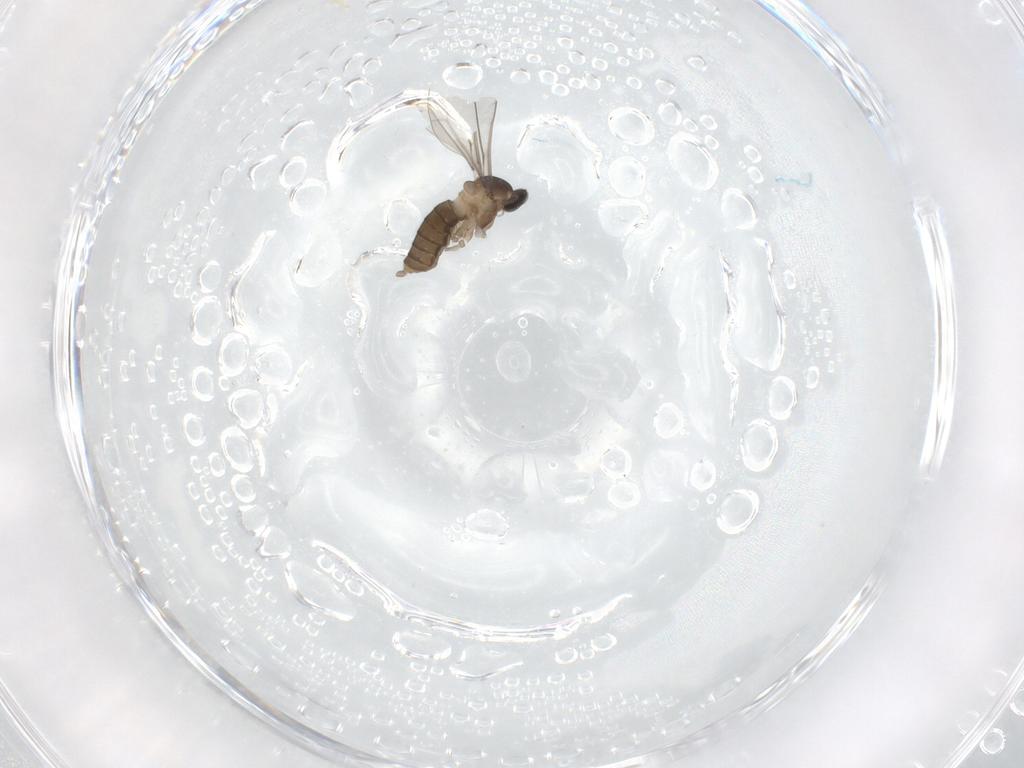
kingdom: Animalia
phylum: Arthropoda
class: Insecta
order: Diptera
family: Cecidomyiidae
